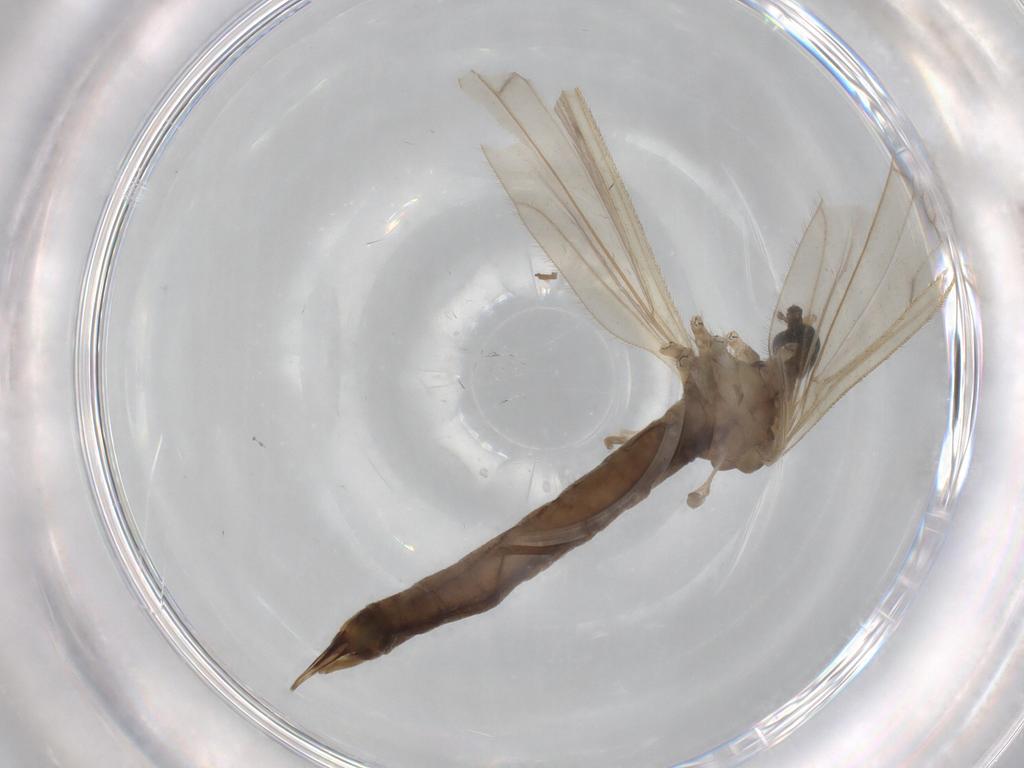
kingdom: Animalia
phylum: Arthropoda
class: Insecta
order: Diptera
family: Cecidomyiidae
